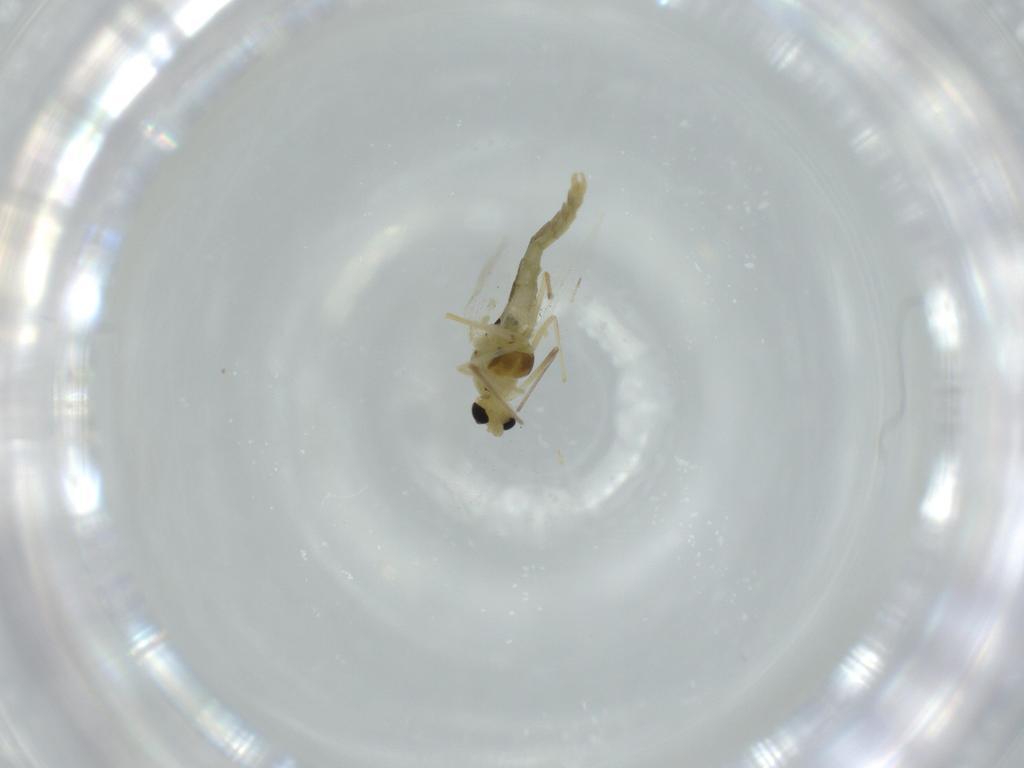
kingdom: Animalia
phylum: Arthropoda
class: Insecta
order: Diptera
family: Chironomidae
